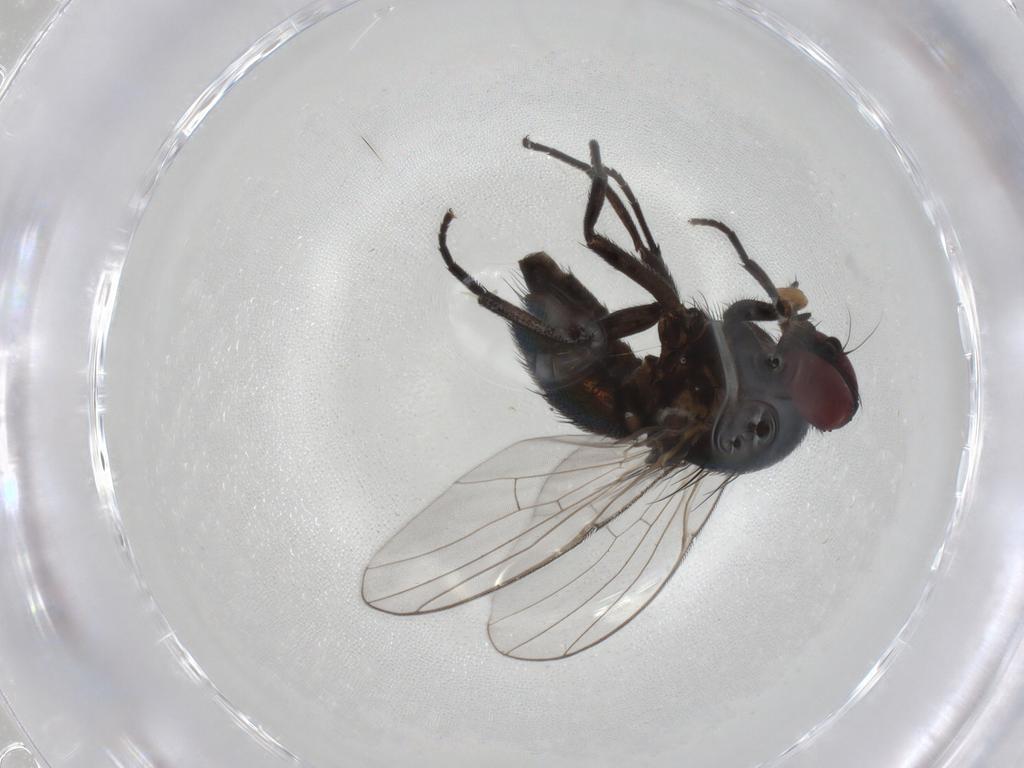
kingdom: Animalia
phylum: Arthropoda
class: Insecta
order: Diptera
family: Agromyzidae
